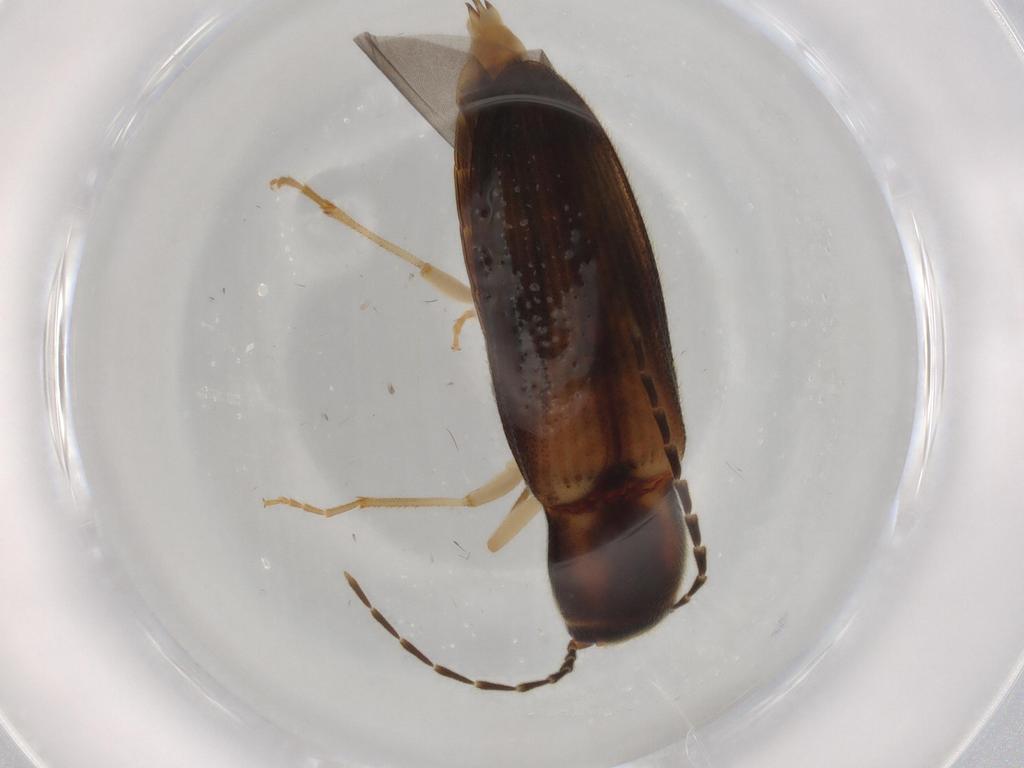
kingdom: Animalia
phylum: Arthropoda
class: Insecta
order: Coleoptera
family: Elateridae
